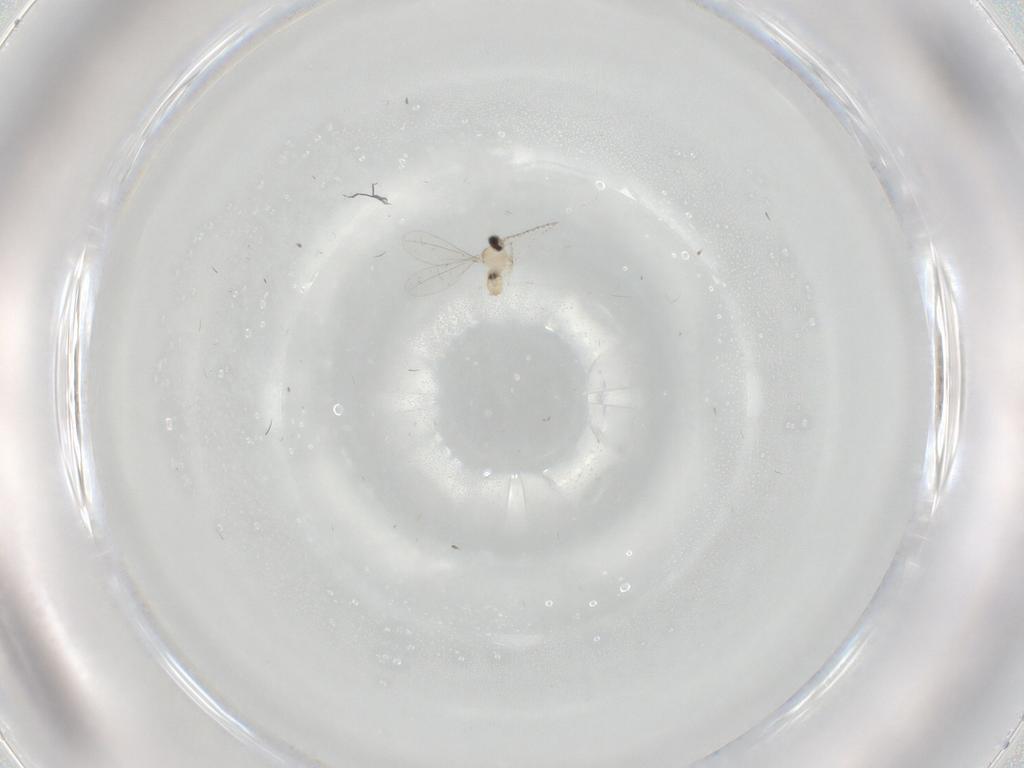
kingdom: Animalia
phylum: Arthropoda
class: Insecta
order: Diptera
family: Cecidomyiidae
